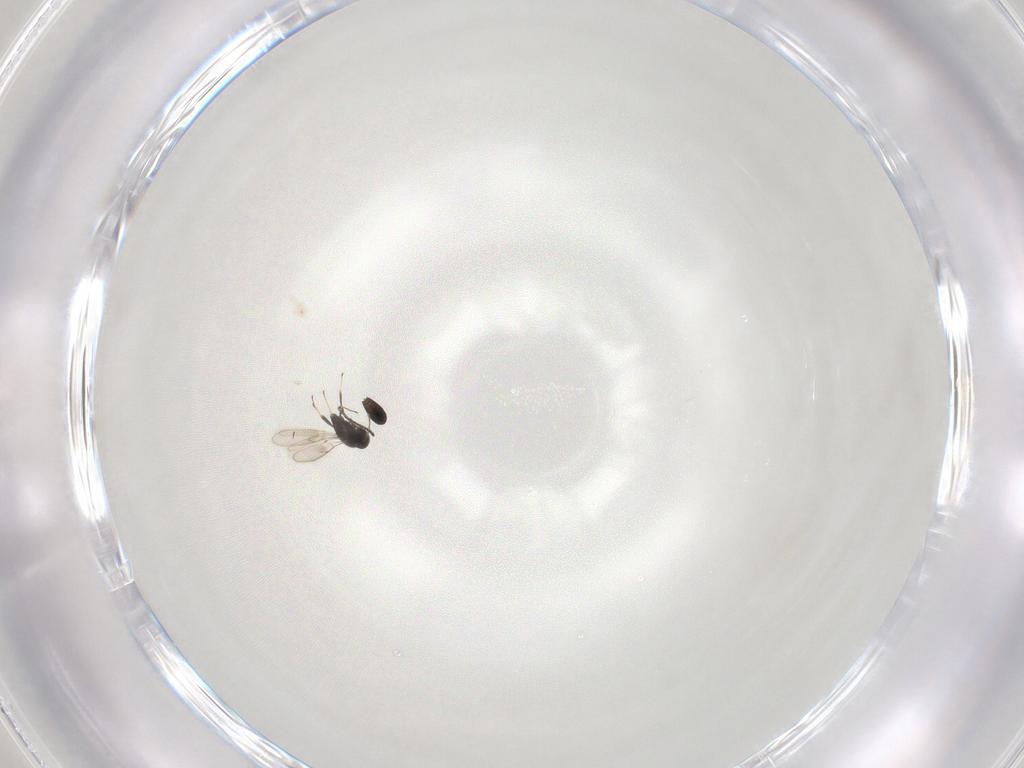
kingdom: Animalia
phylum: Arthropoda
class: Insecta
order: Hymenoptera
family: Scelionidae
